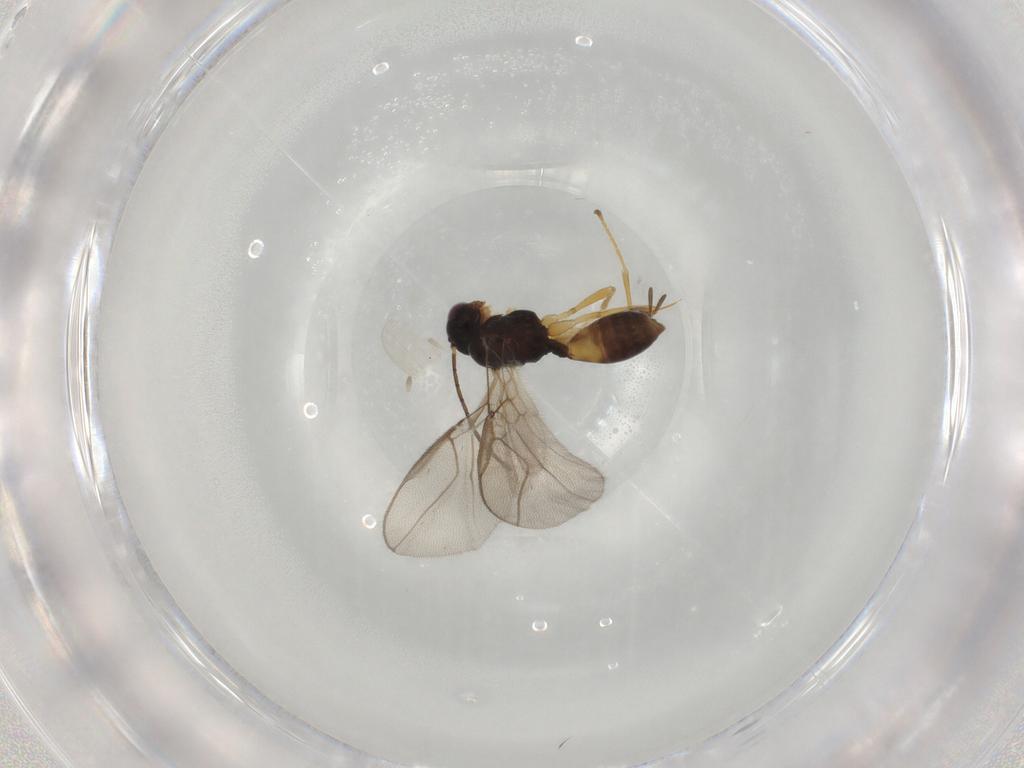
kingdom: Animalia
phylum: Arthropoda
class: Insecta
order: Hymenoptera
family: Braconidae
